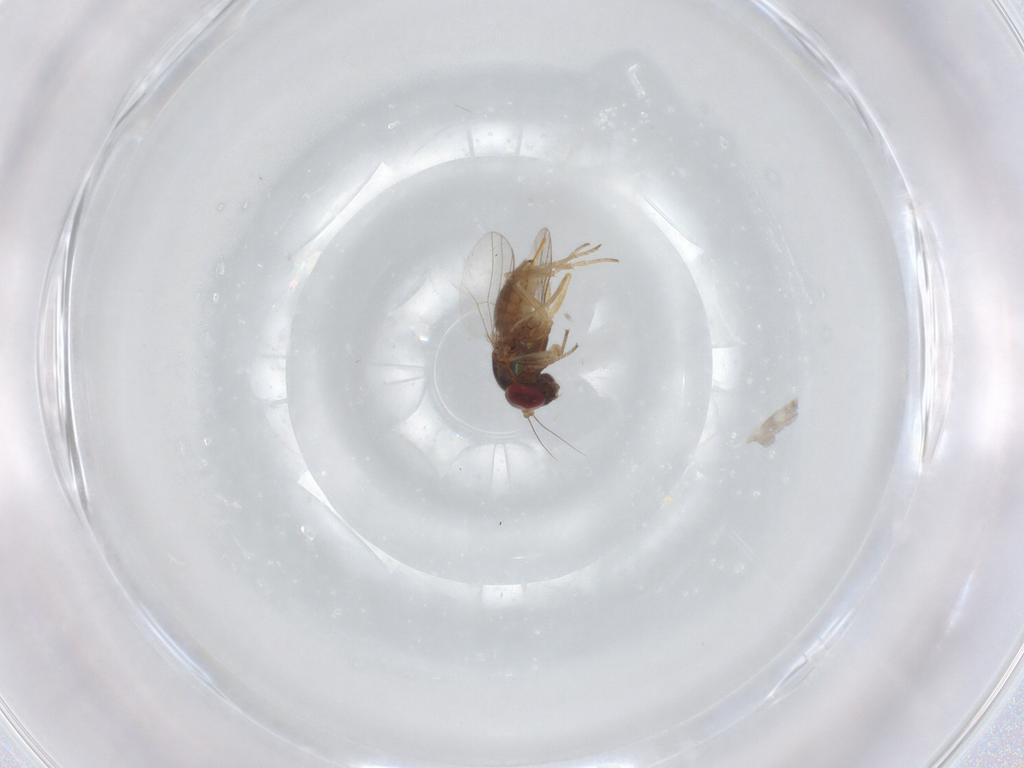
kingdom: Animalia
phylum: Arthropoda
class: Insecta
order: Diptera
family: Dolichopodidae
